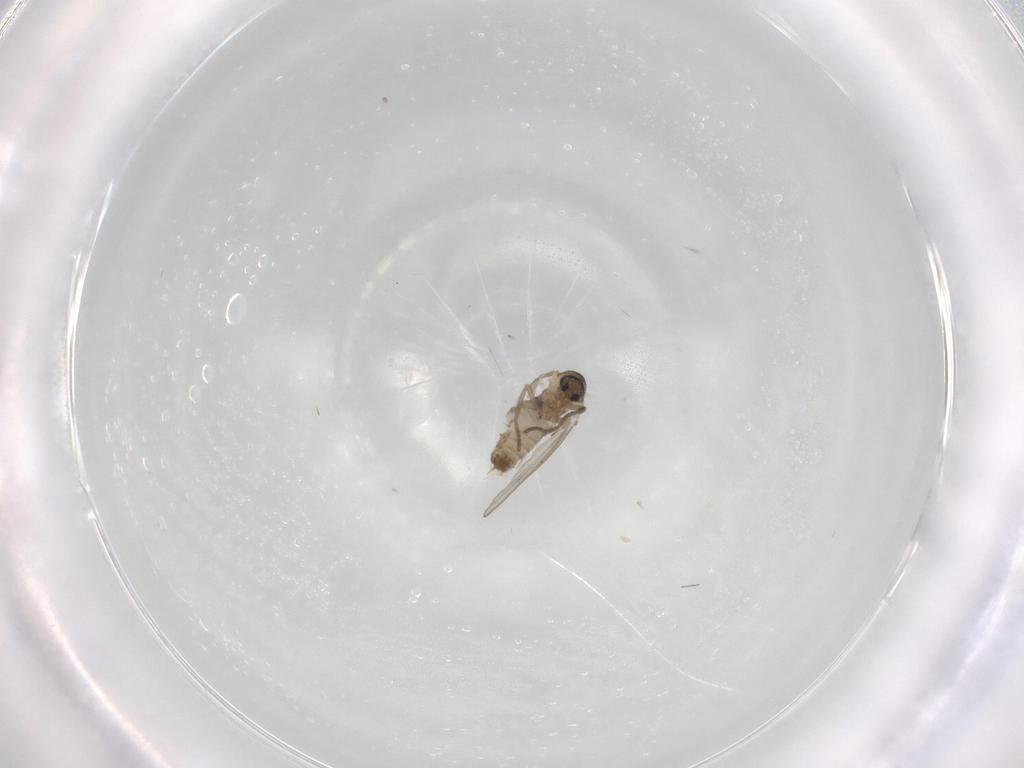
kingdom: Animalia
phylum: Arthropoda
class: Insecta
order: Diptera
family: Psychodidae
